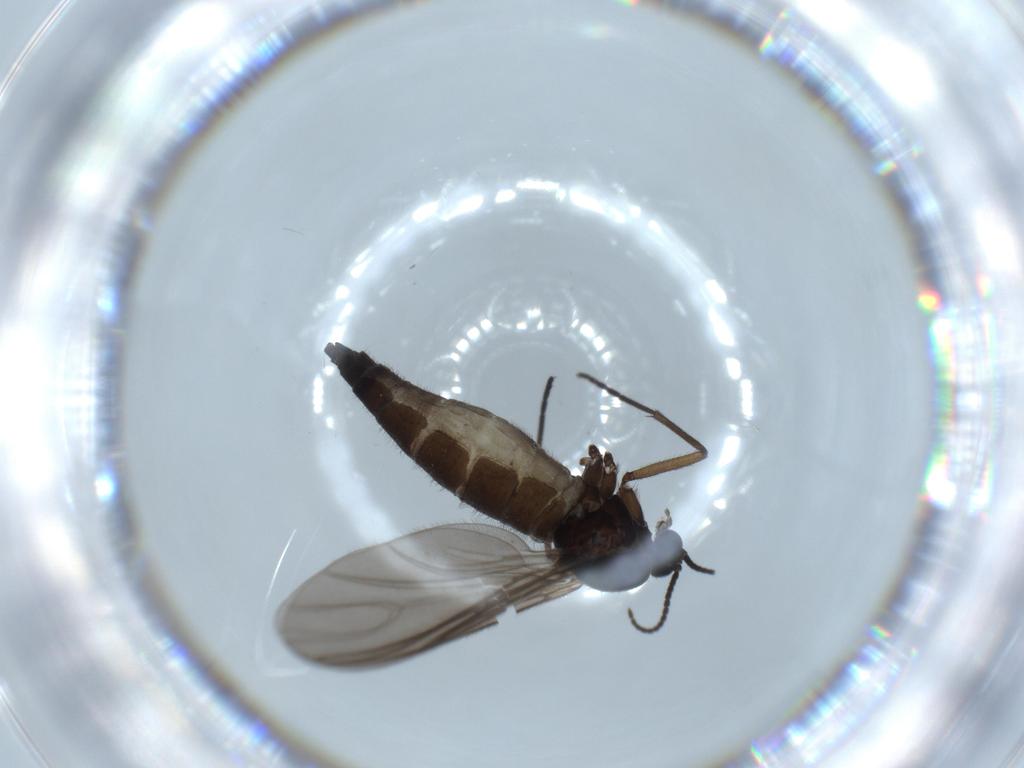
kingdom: Animalia
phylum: Arthropoda
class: Insecta
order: Diptera
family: Sciaridae
